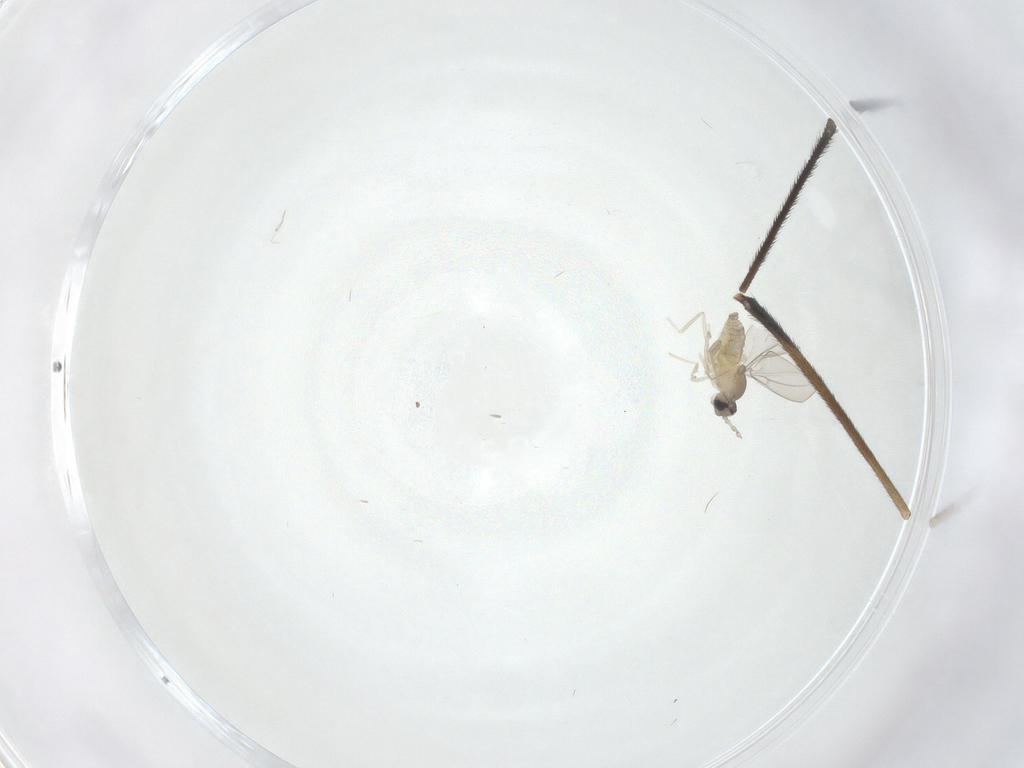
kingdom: Animalia
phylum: Arthropoda
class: Insecta
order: Diptera
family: Cecidomyiidae
